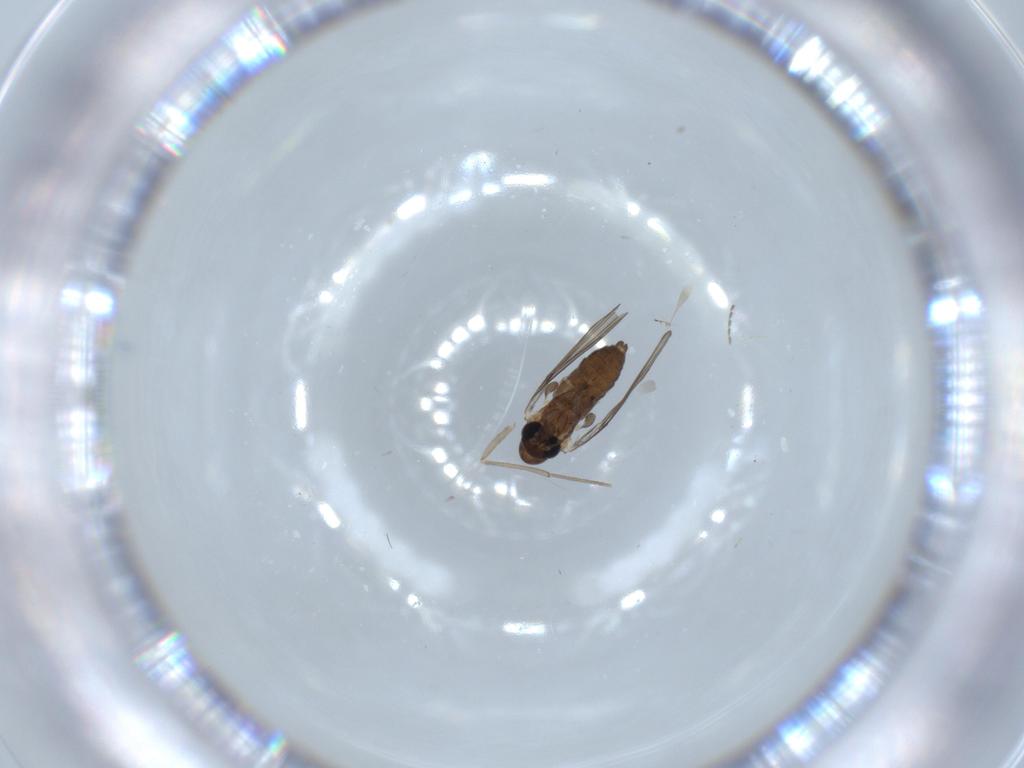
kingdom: Animalia
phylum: Arthropoda
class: Insecta
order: Diptera
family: Psychodidae
